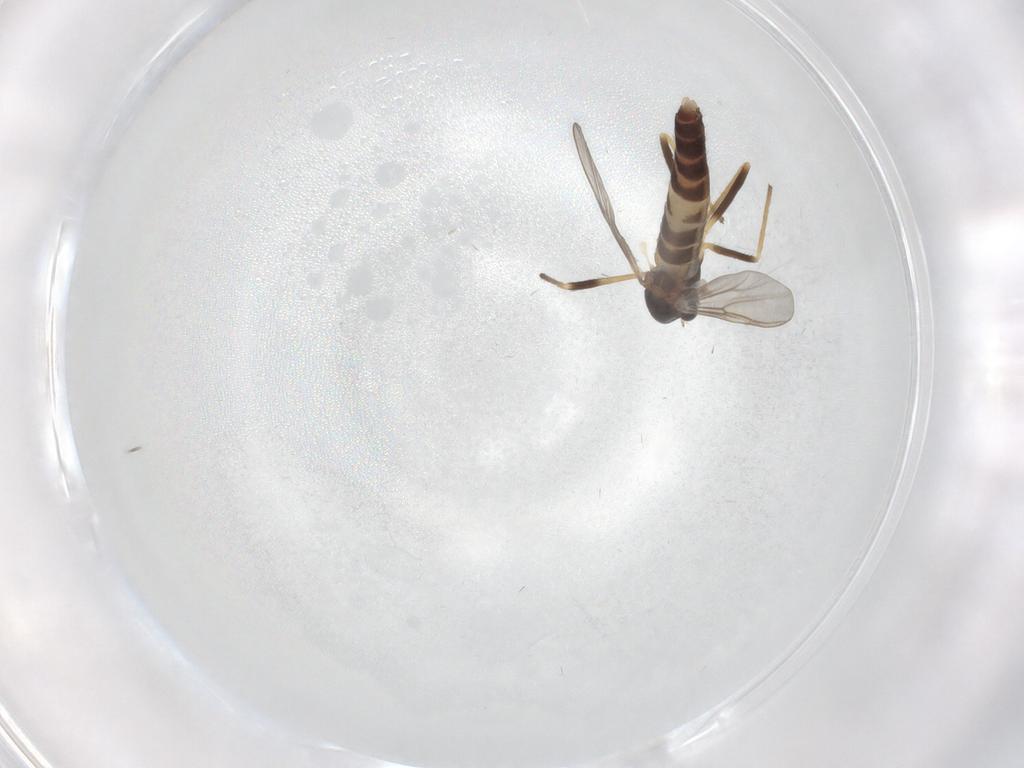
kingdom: Animalia
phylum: Arthropoda
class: Insecta
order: Diptera
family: Chironomidae
